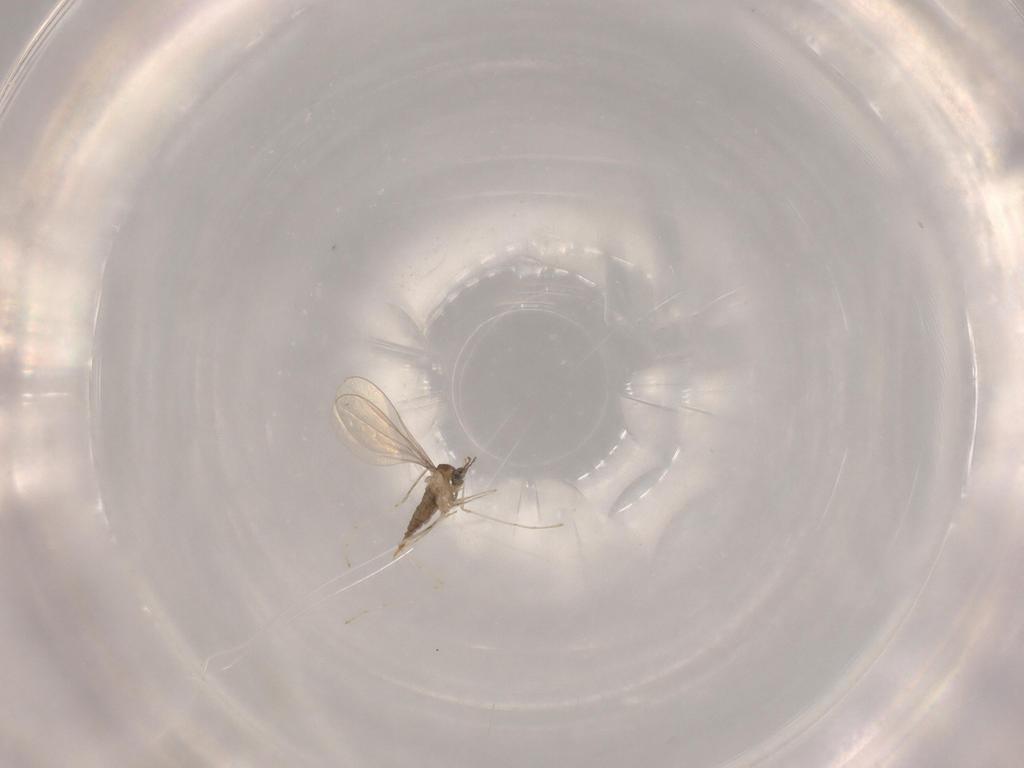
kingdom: Animalia
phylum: Arthropoda
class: Insecta
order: Diptera
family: Cecidomyiidae
